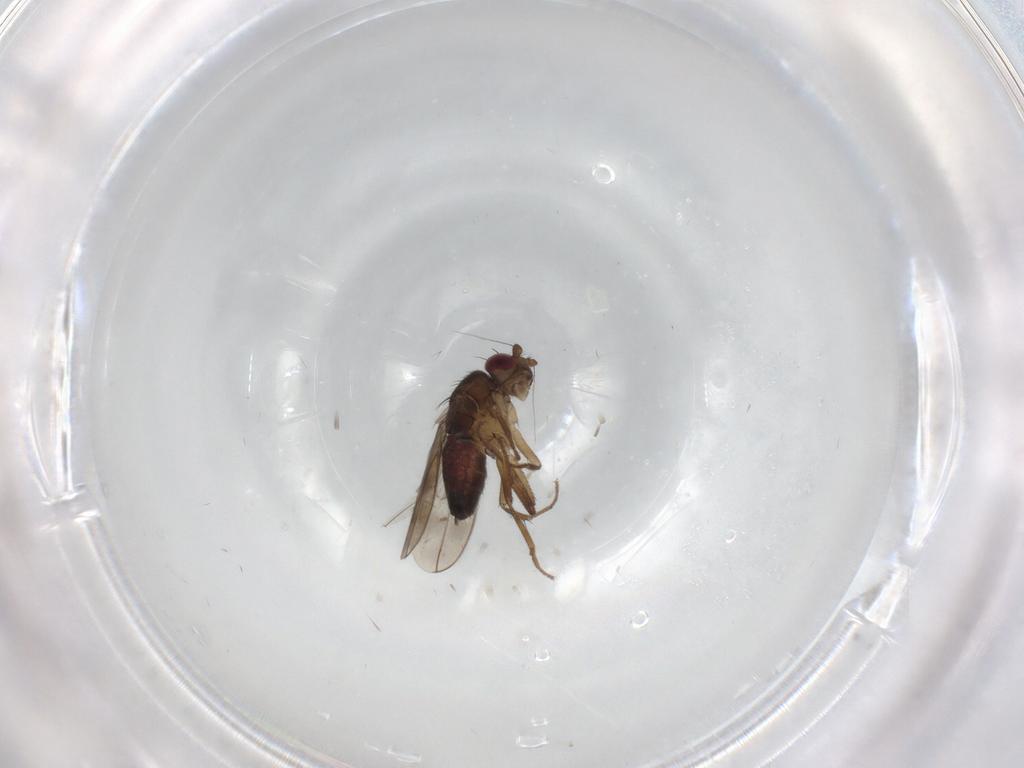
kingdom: Animalia
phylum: Arthropoda
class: Insecta
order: Diptera
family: Sphaeroceridae
